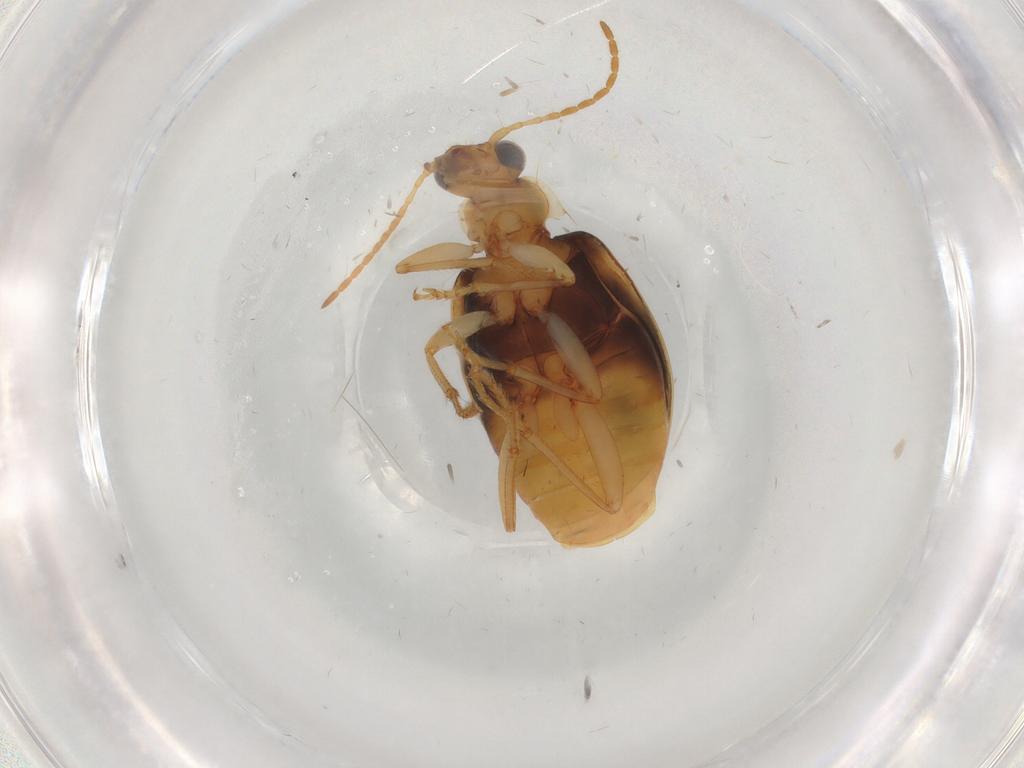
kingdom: Animalia
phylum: Arthropoda
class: Insecta
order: Coleoptera
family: Carabidae
